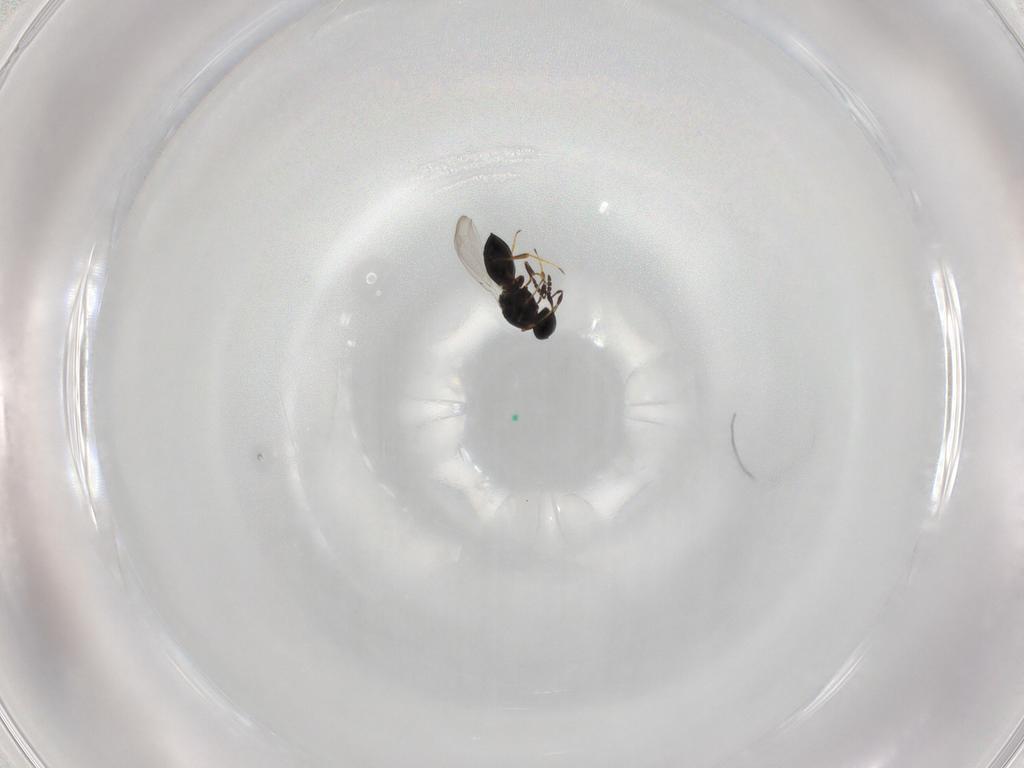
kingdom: Animalia
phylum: Arthropoda
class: Insecta
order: Hymenoptera
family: Platygastridae
